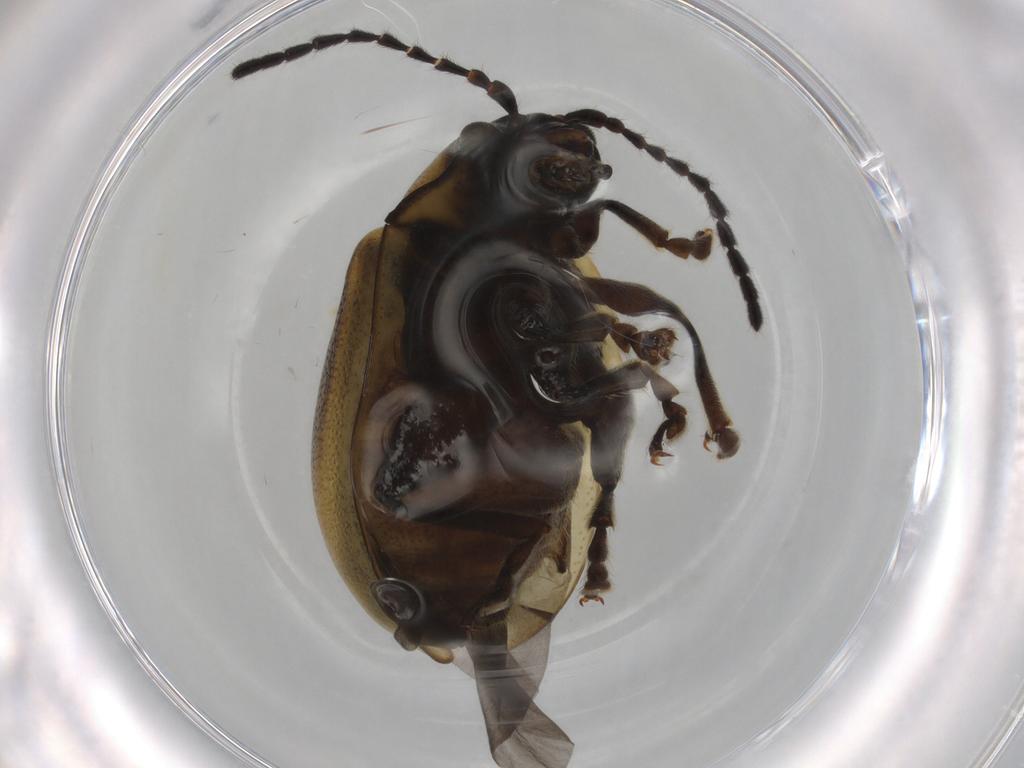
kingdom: Animalia
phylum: Arthropoda
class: Insecta
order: Coleoptera
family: Chrysomelidae
